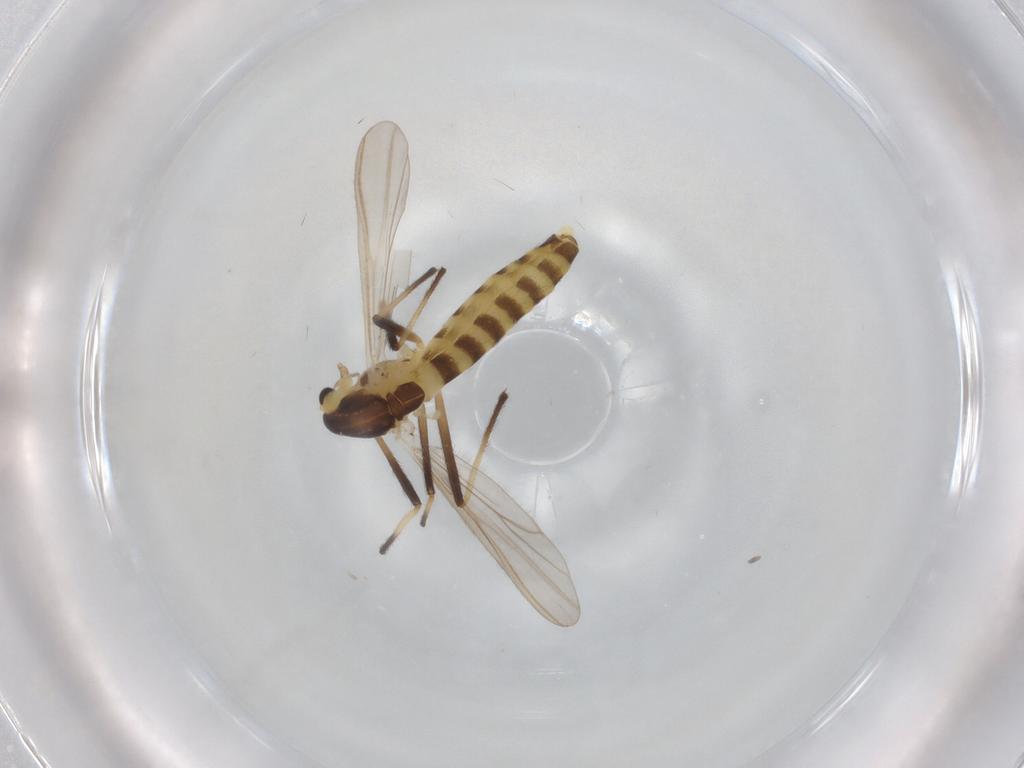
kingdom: Animalia
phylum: Arthropoda
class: Insecta
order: Diptera
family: Chironomidae
